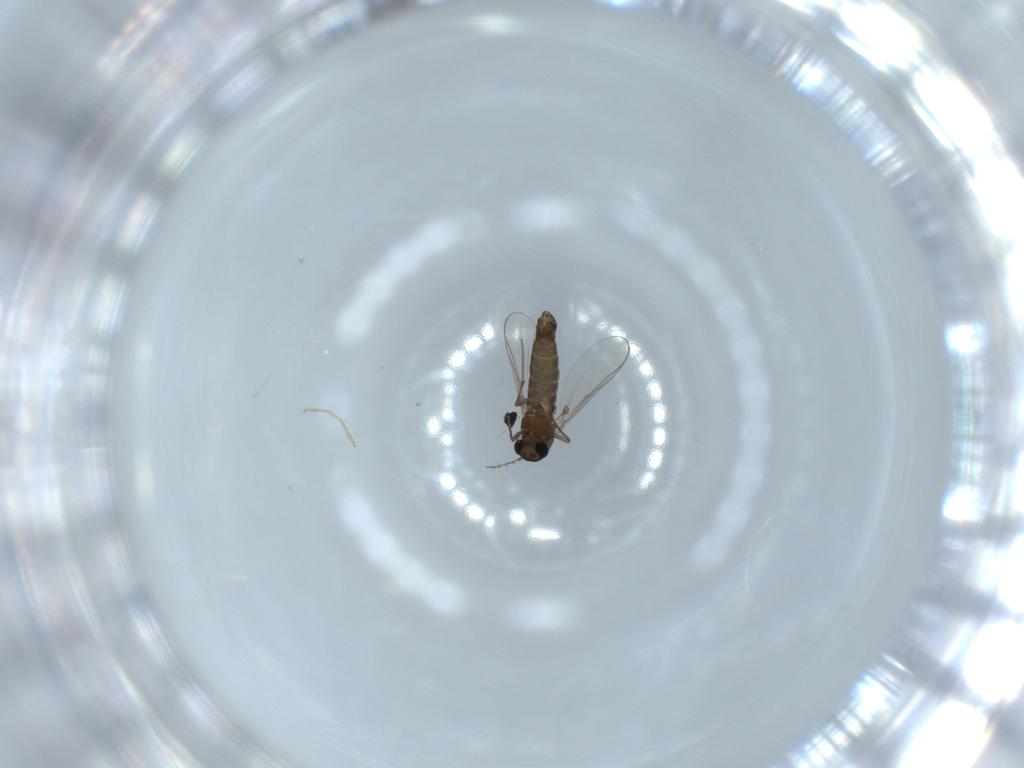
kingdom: Animalia
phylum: Arthropoda
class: Insecta
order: Diptera
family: Chironomidae
